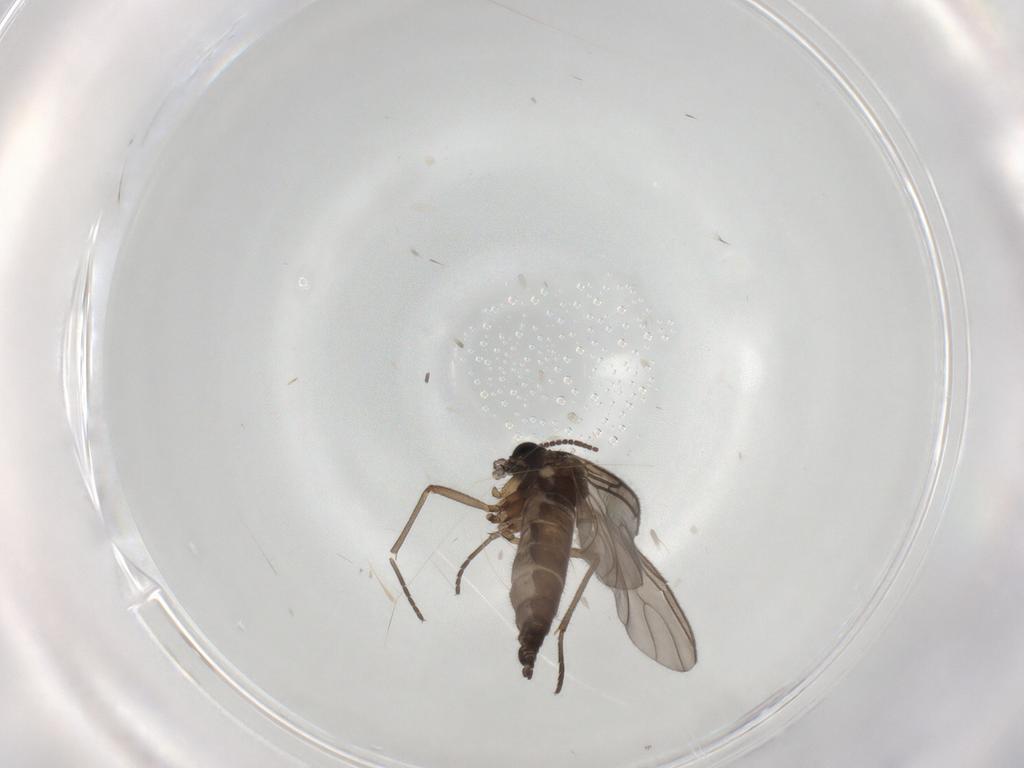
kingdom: Animalia
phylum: Arthropoda
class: Insecta
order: Diptera
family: Sciaridae
